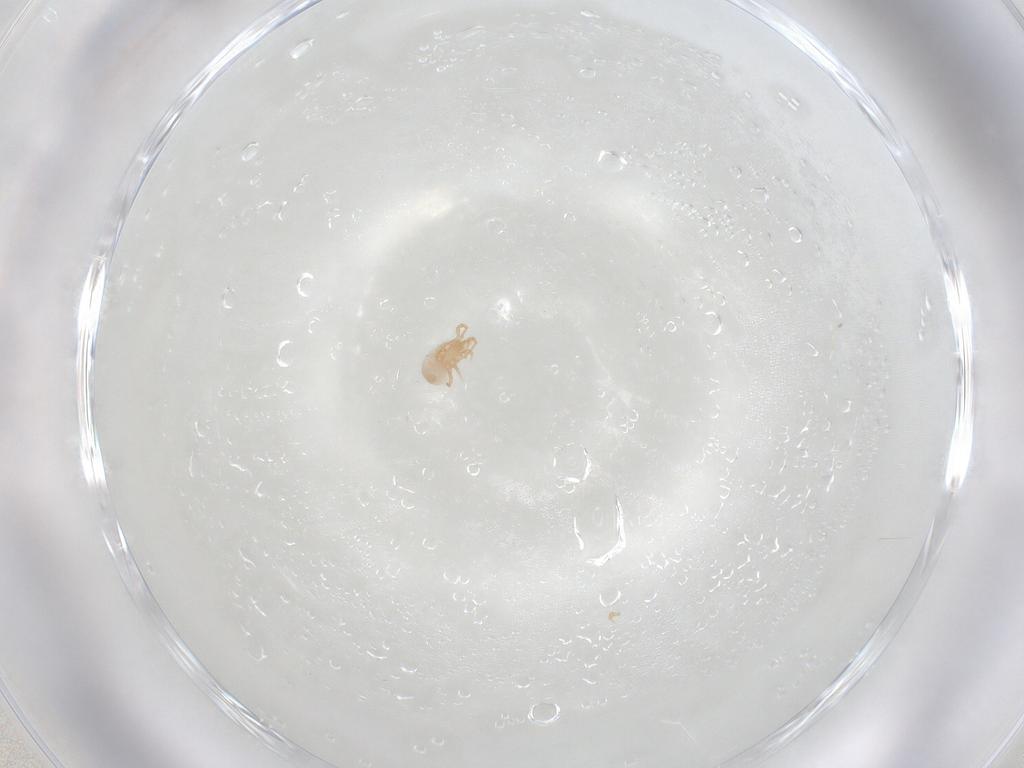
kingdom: Animalia
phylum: Arthropoda
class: Arachnida
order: Mesostigmata
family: Ascidae
